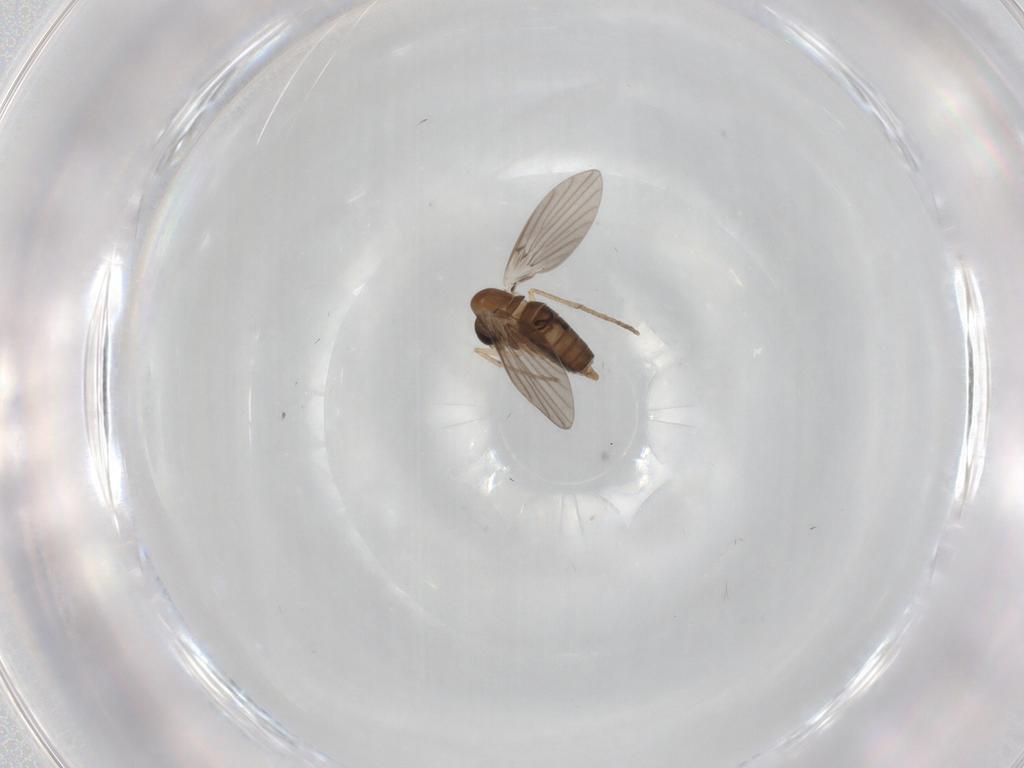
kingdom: Animalia
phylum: Arthropoda
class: Insecta
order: Diptera
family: Sciaridae
